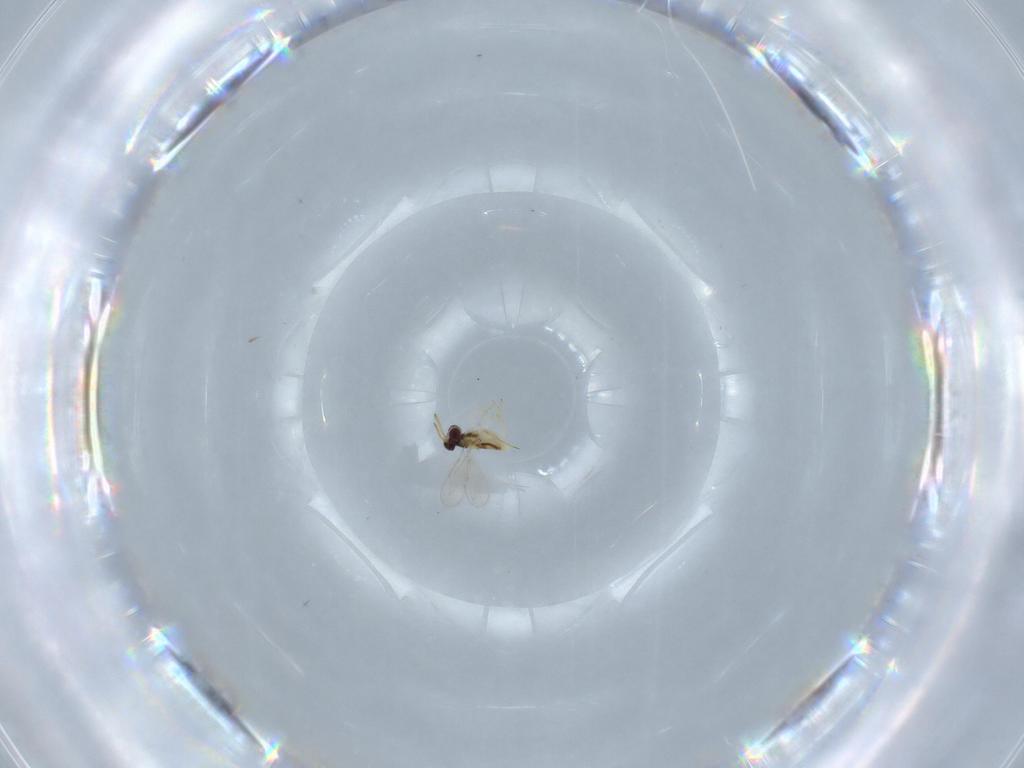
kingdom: Animalia
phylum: Arthropoda
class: Insecta
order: Hymenoptera
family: Aphelinidae
